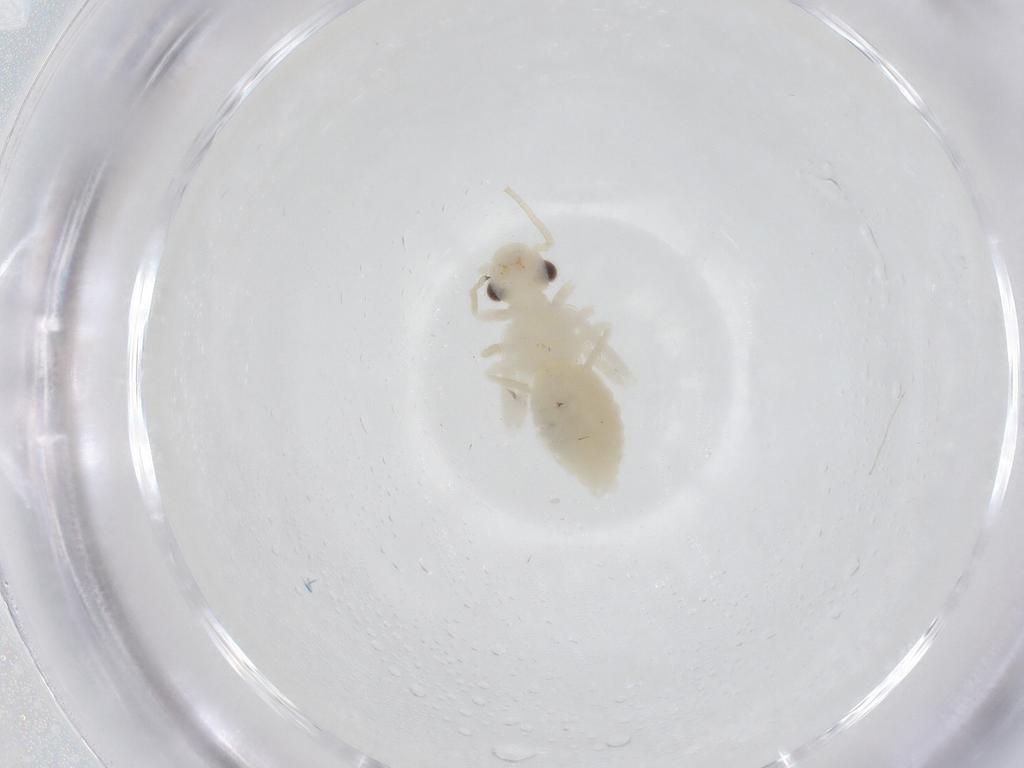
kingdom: Animalia
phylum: Arthropoda
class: Insecta
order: Psocodea
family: Caeciliusidae
